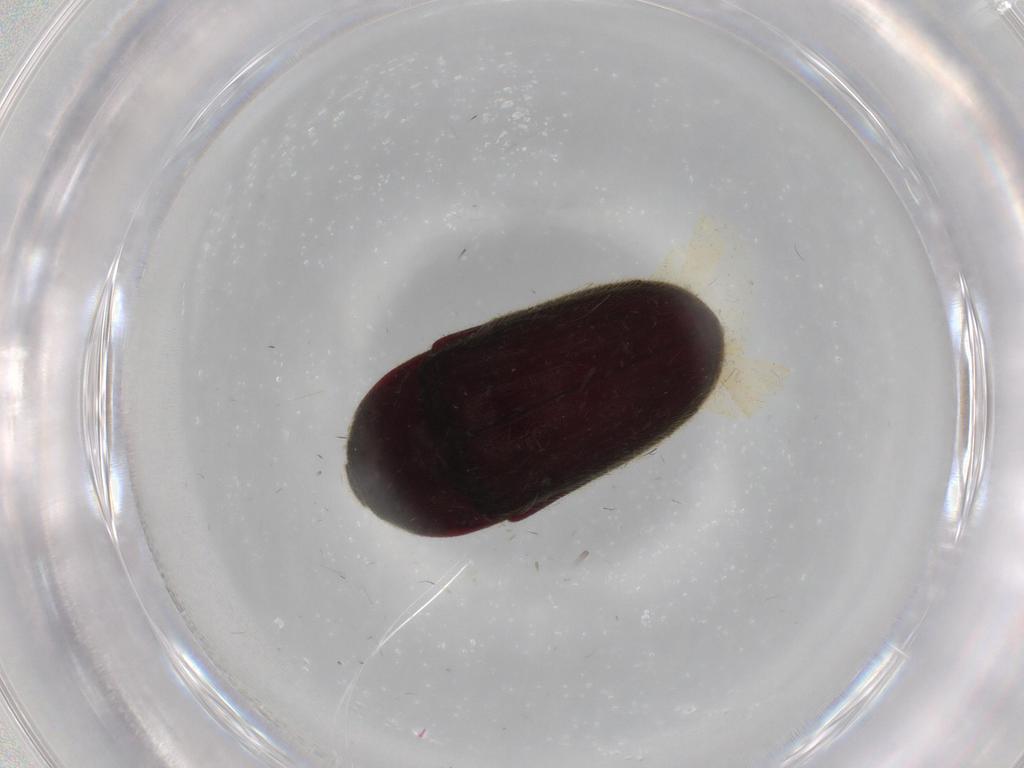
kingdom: Animalia
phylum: Arthropoda
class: Insecta
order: Coleoptera
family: Throscidae
